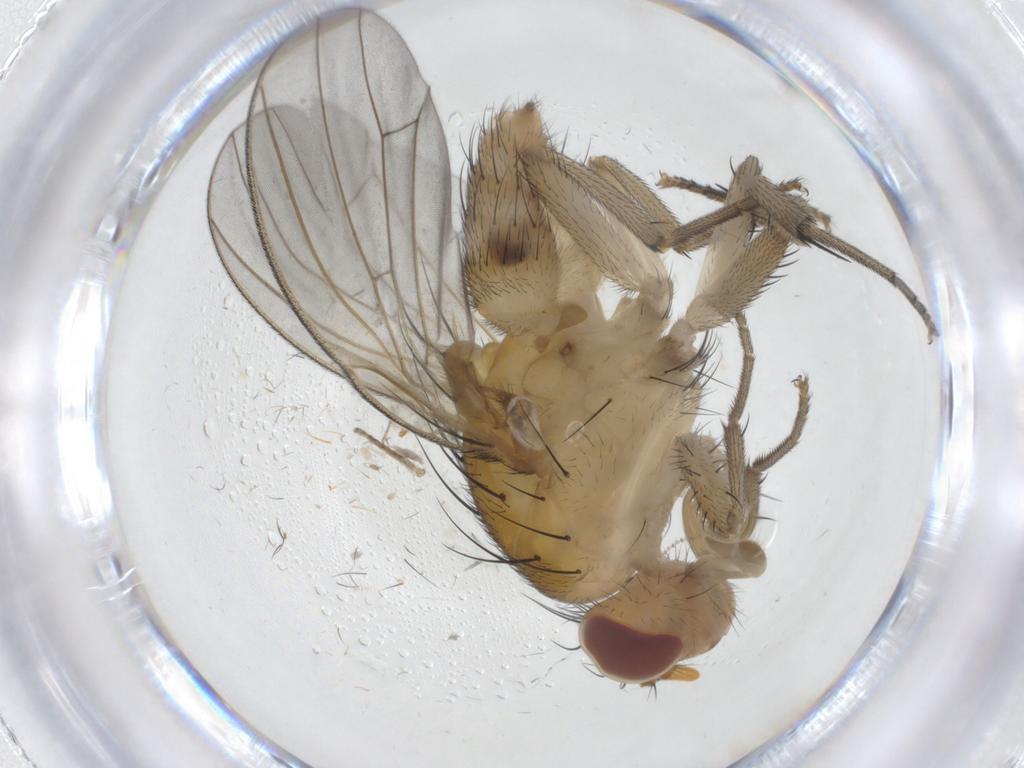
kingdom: Animalia
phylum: Arthropoda
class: Insecta
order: Diptera
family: Cecidomyiidae
